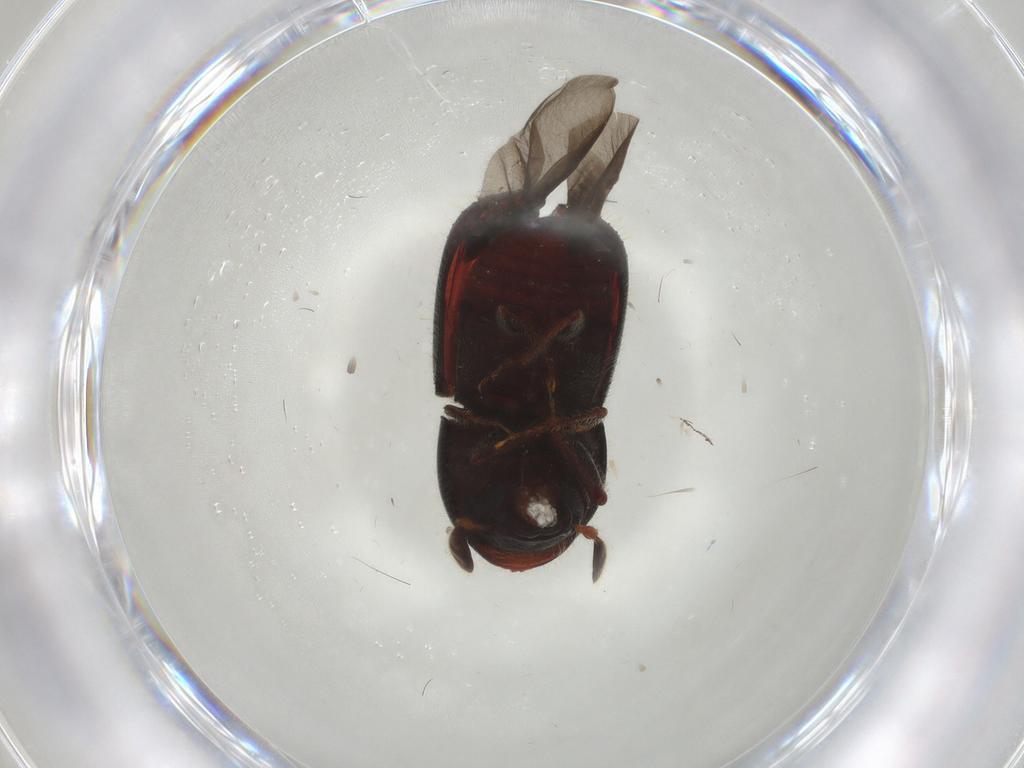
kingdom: Animalia
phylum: Arthropoda
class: Insecta
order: Coleoptera
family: Curculionidae
